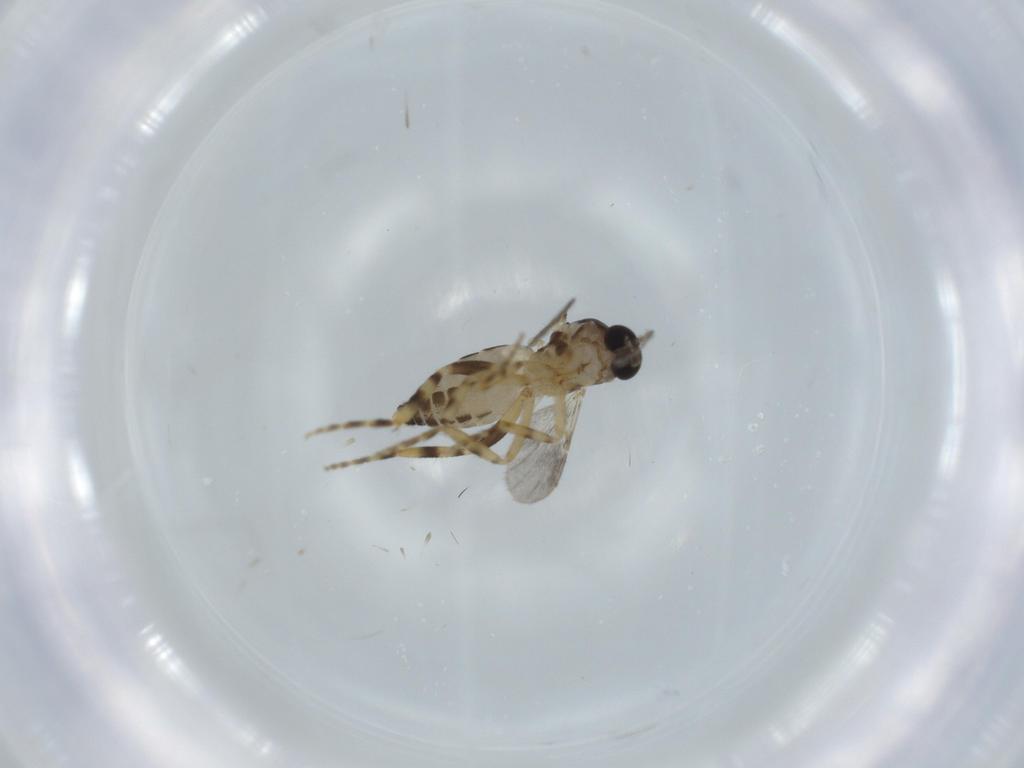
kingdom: Animalia
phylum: Arthropoda
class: Insecta
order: Diptera
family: Ceratopogonidae
